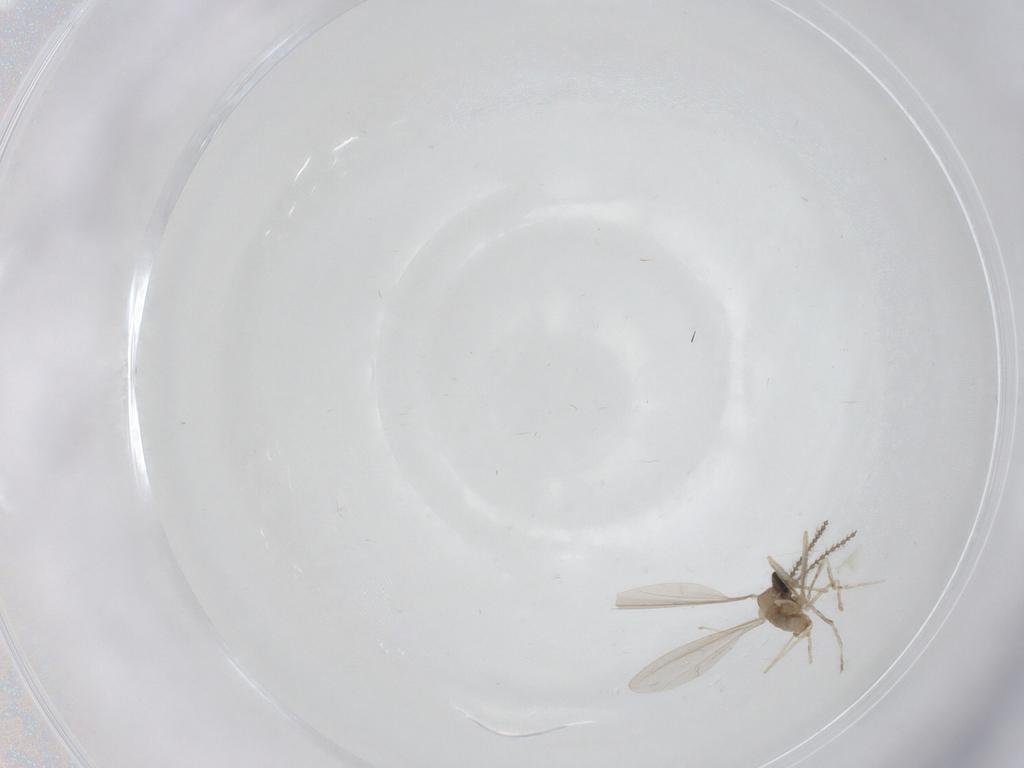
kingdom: Animalia
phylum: Arthropoda
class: Insecta
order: Diptera
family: Cecidomyiidae
